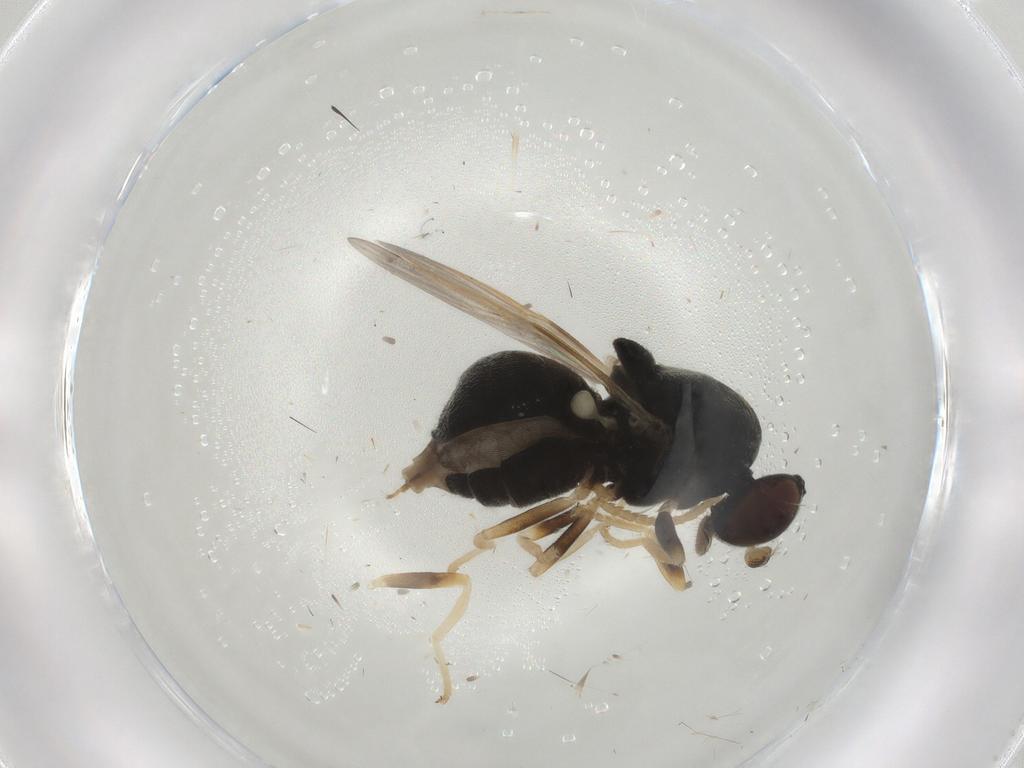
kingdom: Animalia
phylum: Arthropoda
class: Insecta
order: Diptera
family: Stratiomyidae
